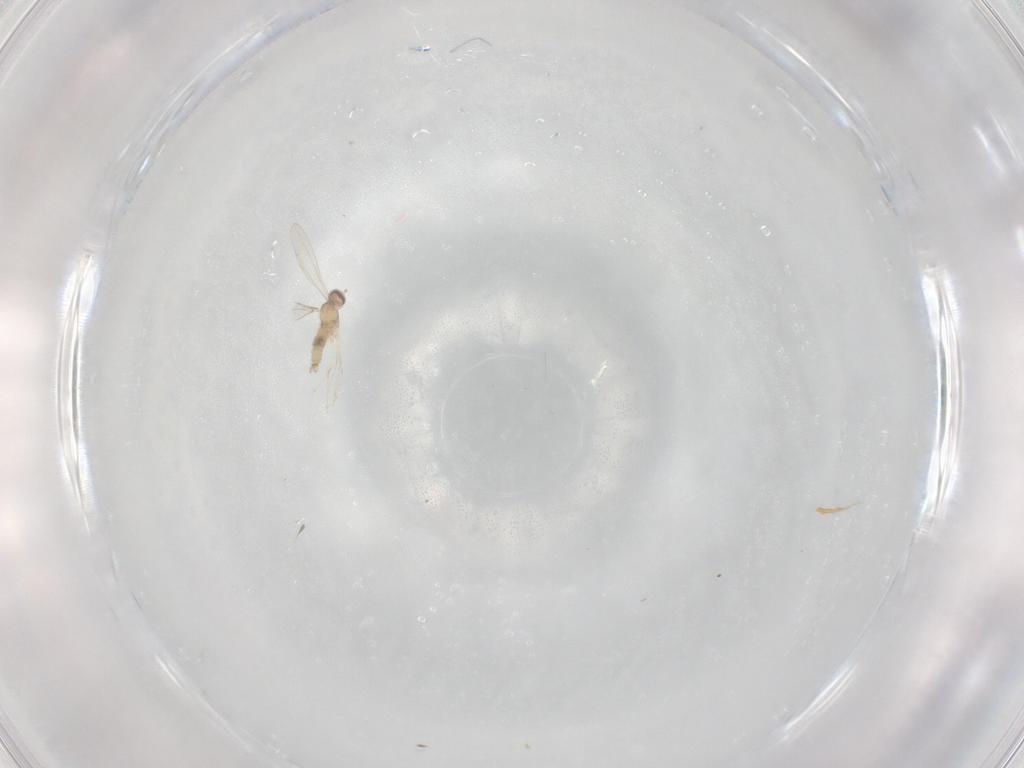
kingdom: Animalia
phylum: Arthropoda
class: Insecta
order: Diptera
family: Cecidomyiidae
